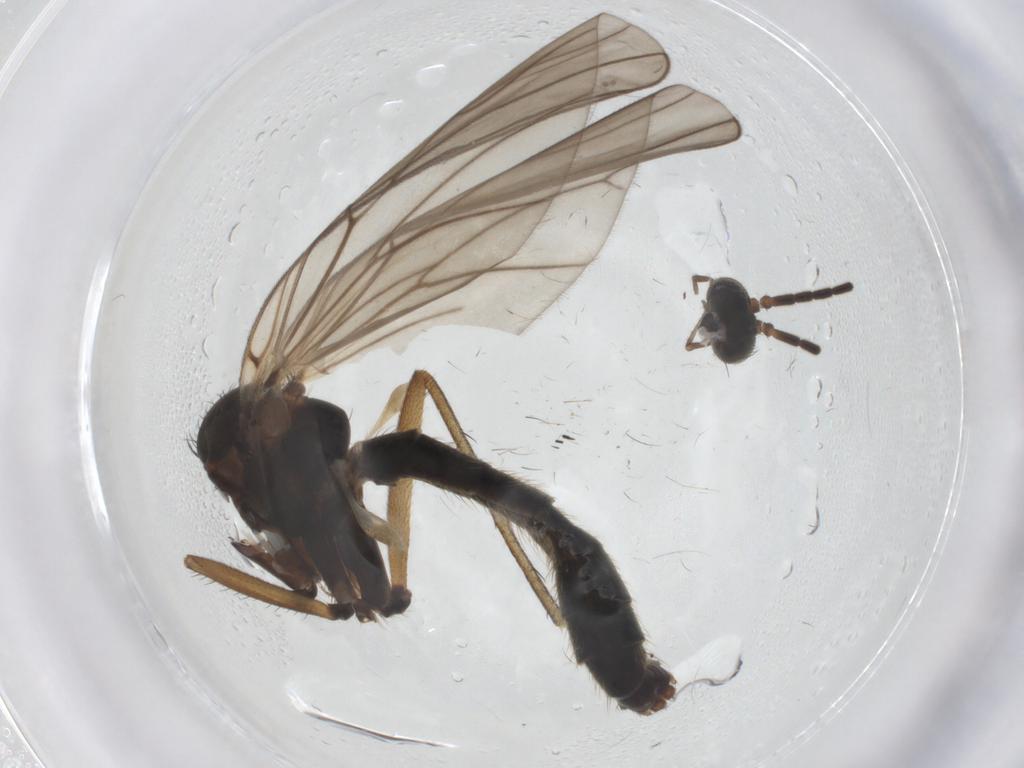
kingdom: Animalia
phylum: Arthropoda
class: Insecta
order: Diptera
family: Mycetophilidae
